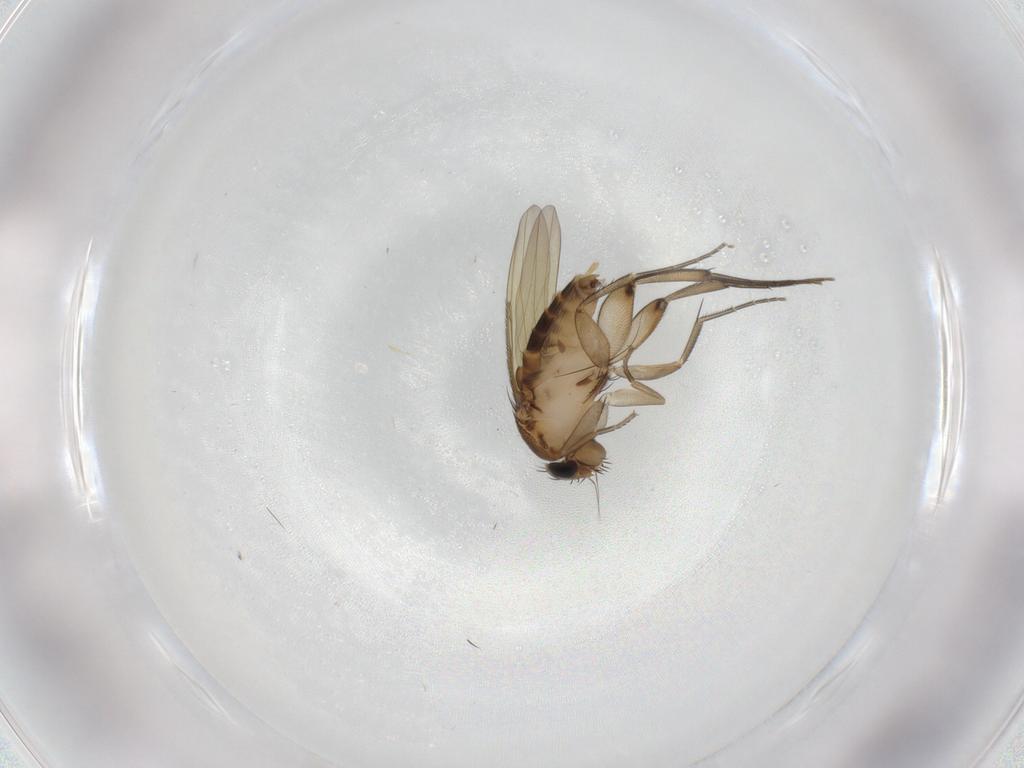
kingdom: Animalia
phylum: Arthropoda
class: Insecta
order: Diptera
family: Phoridae
